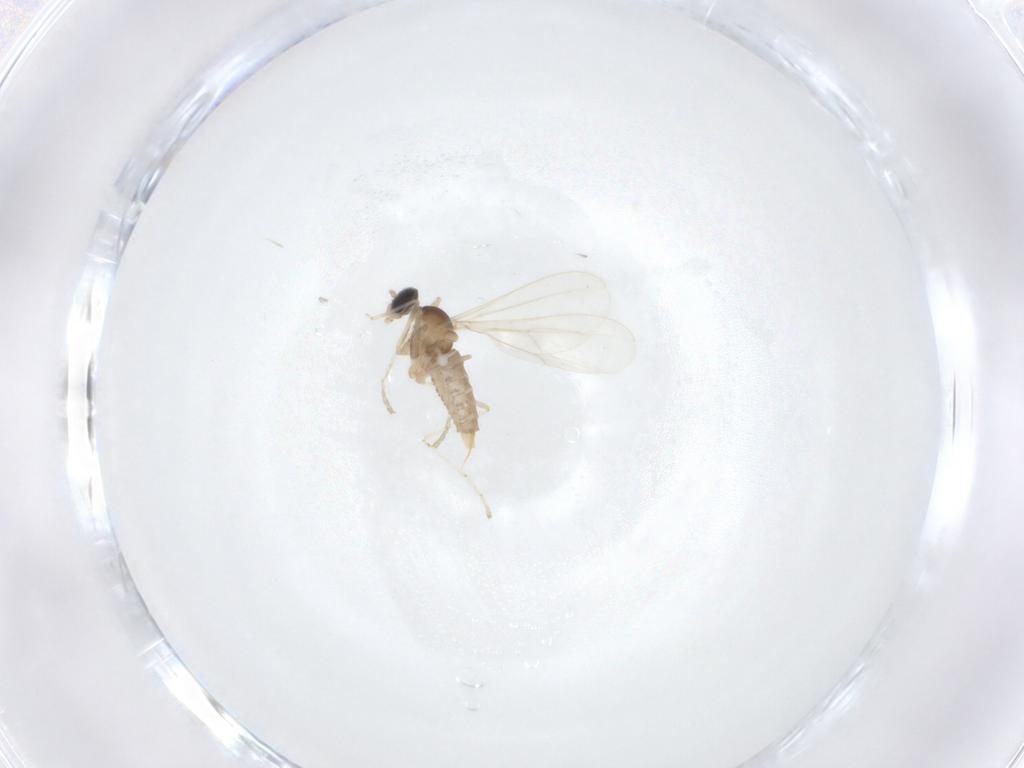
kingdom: Animalia
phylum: Arthropoda
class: Insecta
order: Diptera
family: Cecidomyiidae
